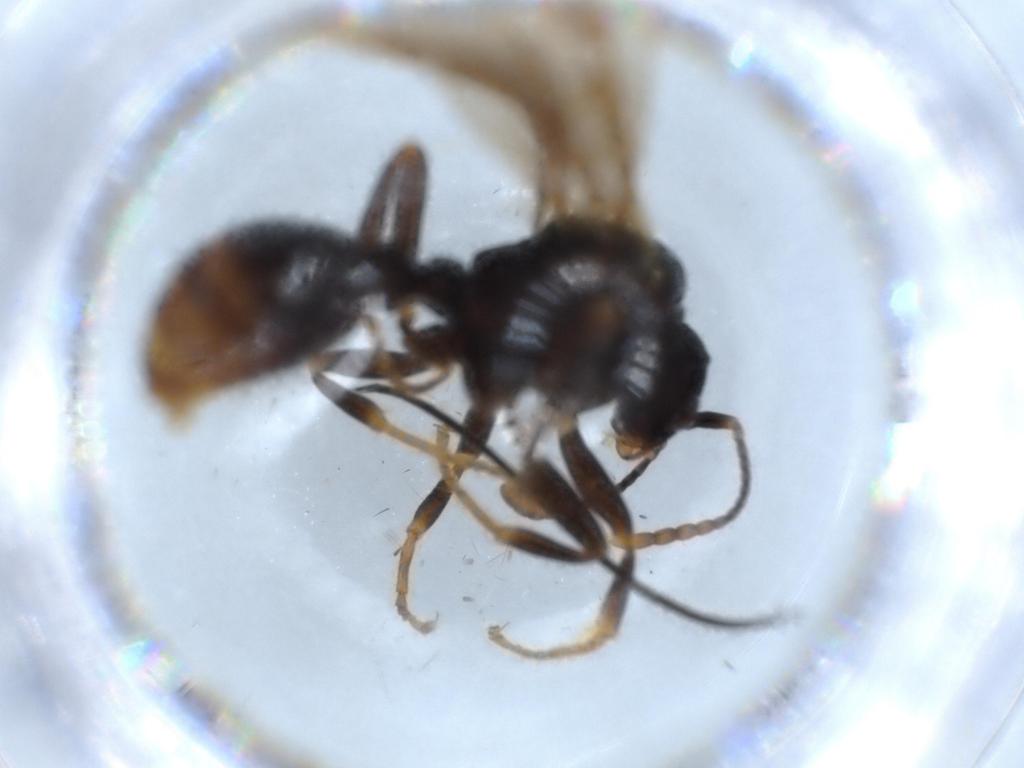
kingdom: Animalia
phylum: Arthropoda
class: Insecta
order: Hymenoptera
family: Formicidae
